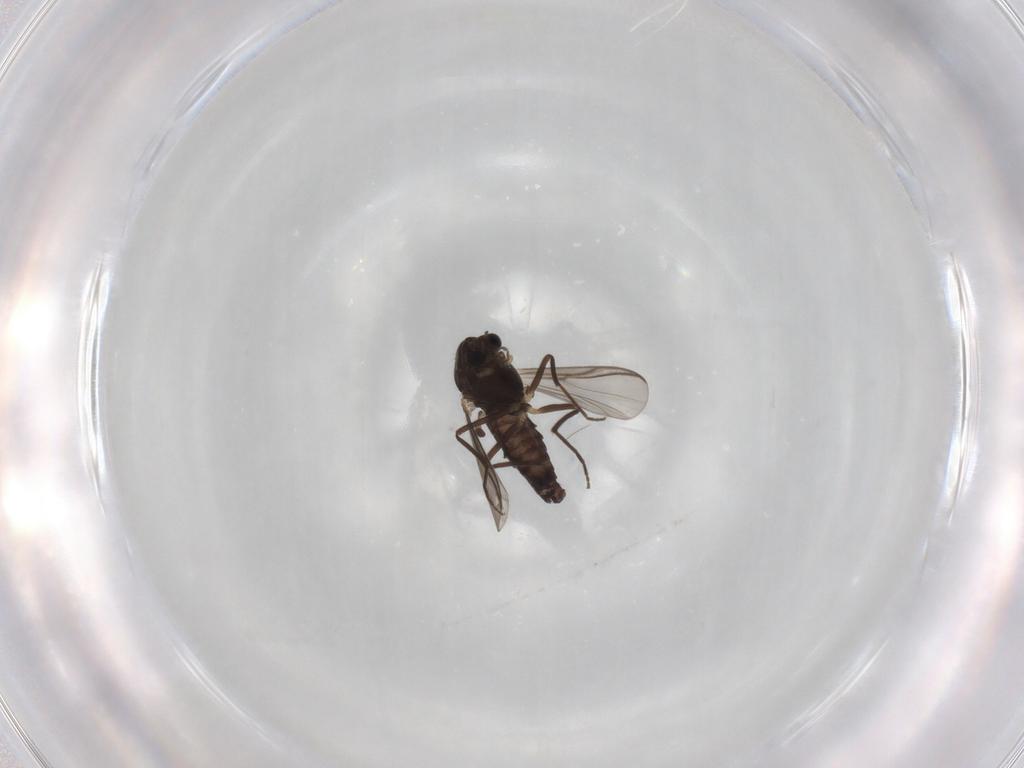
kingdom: Animalia
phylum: Arthropoda
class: Insecta
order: Diptera
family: Chironomidae
